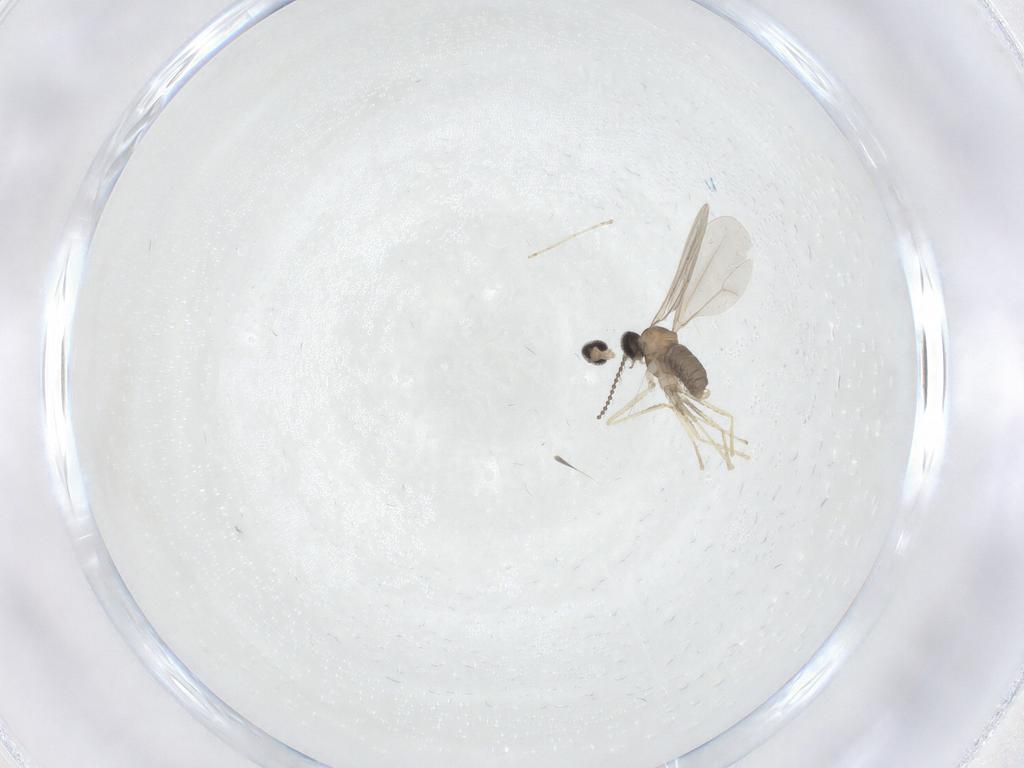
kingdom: Animalia
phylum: Arthropoda
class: Insecta
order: Diptera
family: Cecidomyiidae
